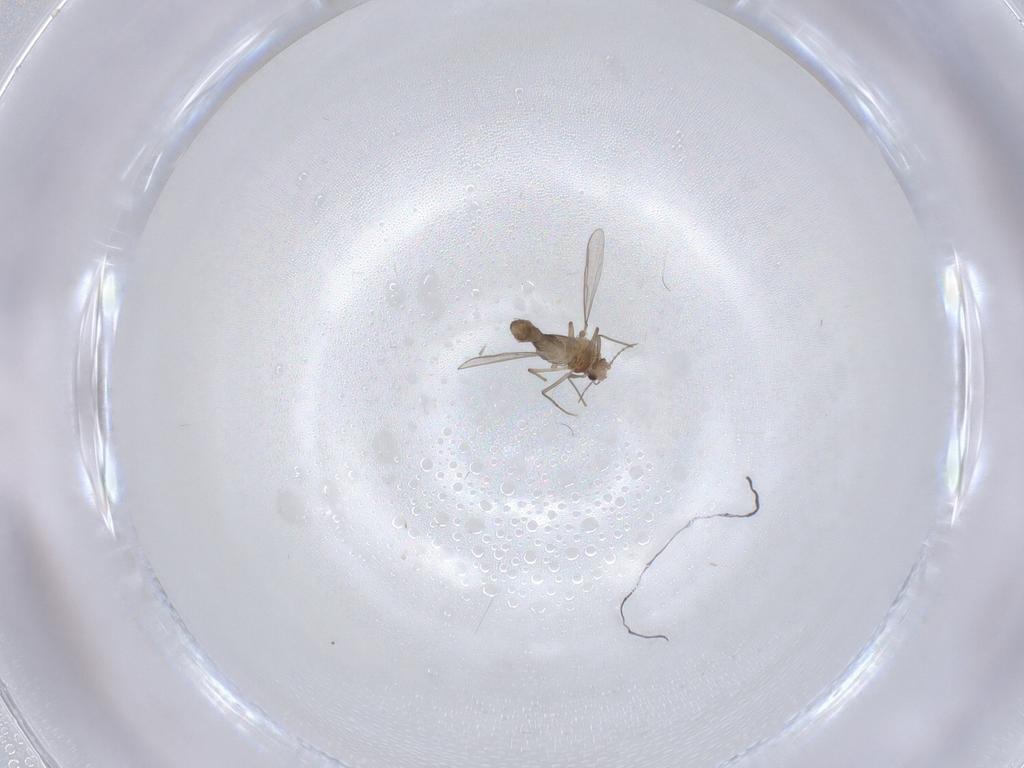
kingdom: Animalia
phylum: Arthropoda
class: Insecta
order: Diptera
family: Chironomidae
